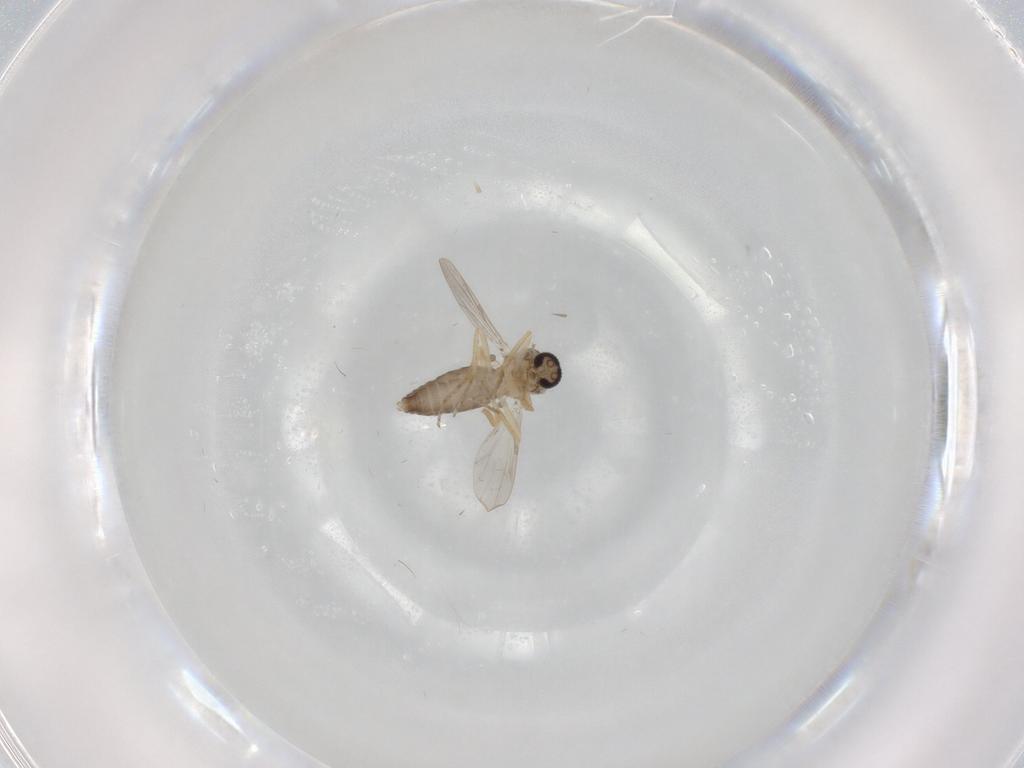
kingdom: Animalia
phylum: Arthropoda
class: Insecta
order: Diptera
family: Ceratopogonidae
